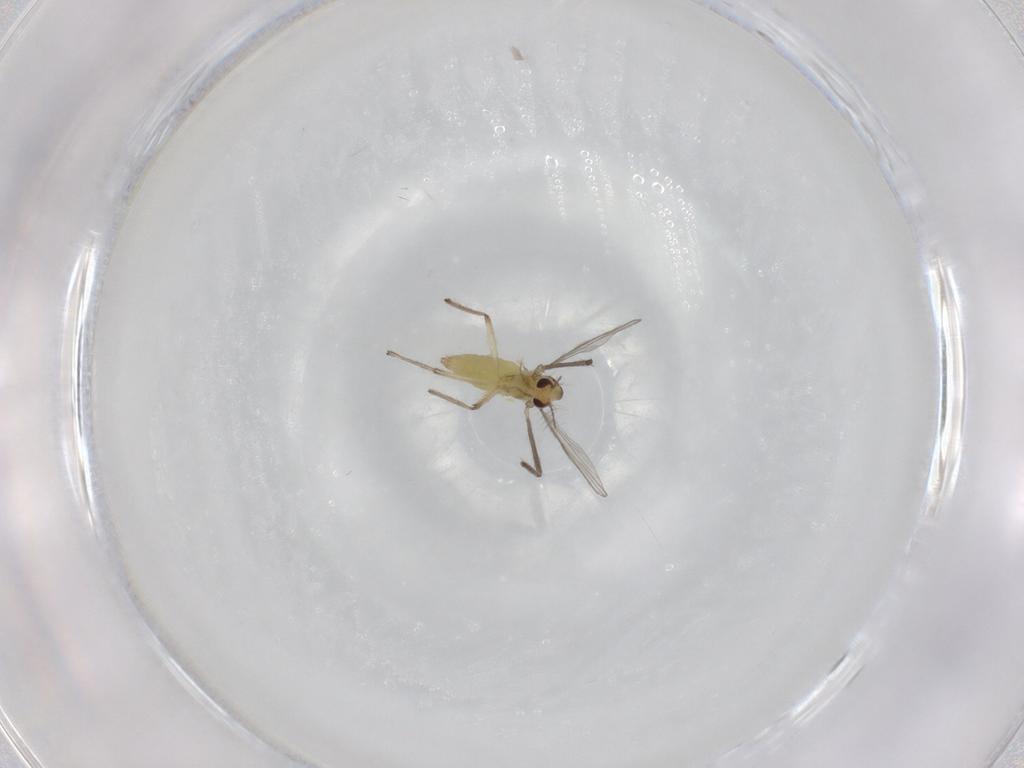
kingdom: Animalia
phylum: Arthropoda
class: Insecta
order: Diptera
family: Chironomidae
